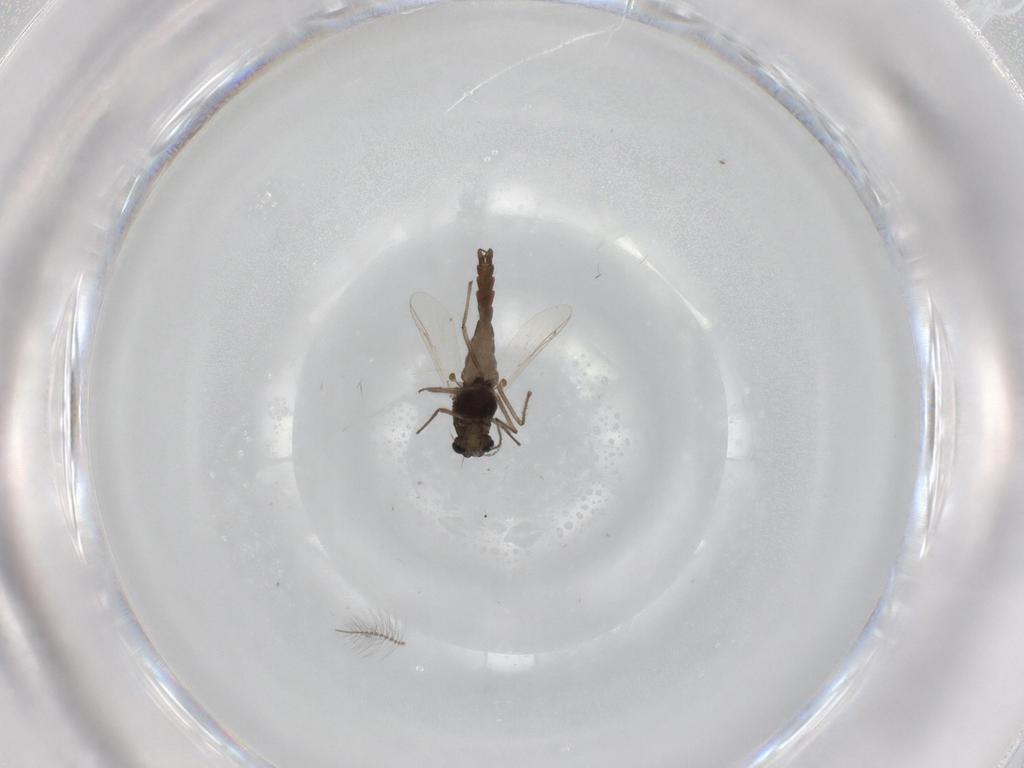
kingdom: Animalia
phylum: Arthropoda
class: Insecta
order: Diptera
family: Chironomidae
